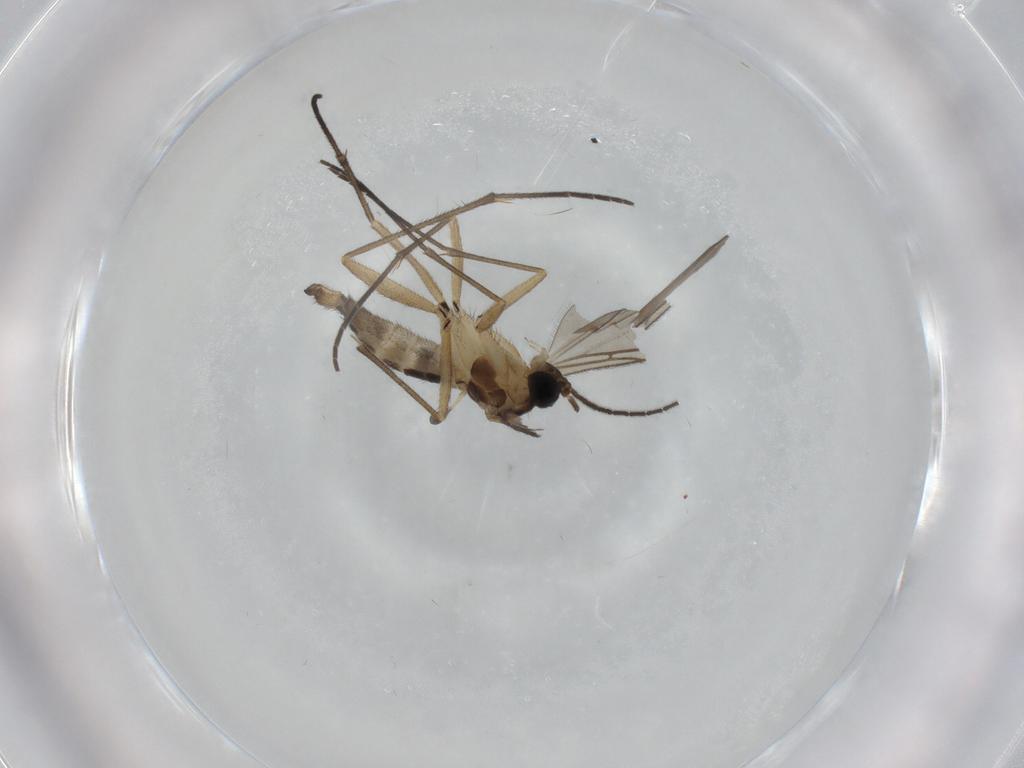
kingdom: Animalia
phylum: Arthropoda
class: Insecta
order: Diptera
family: Sciaridae
